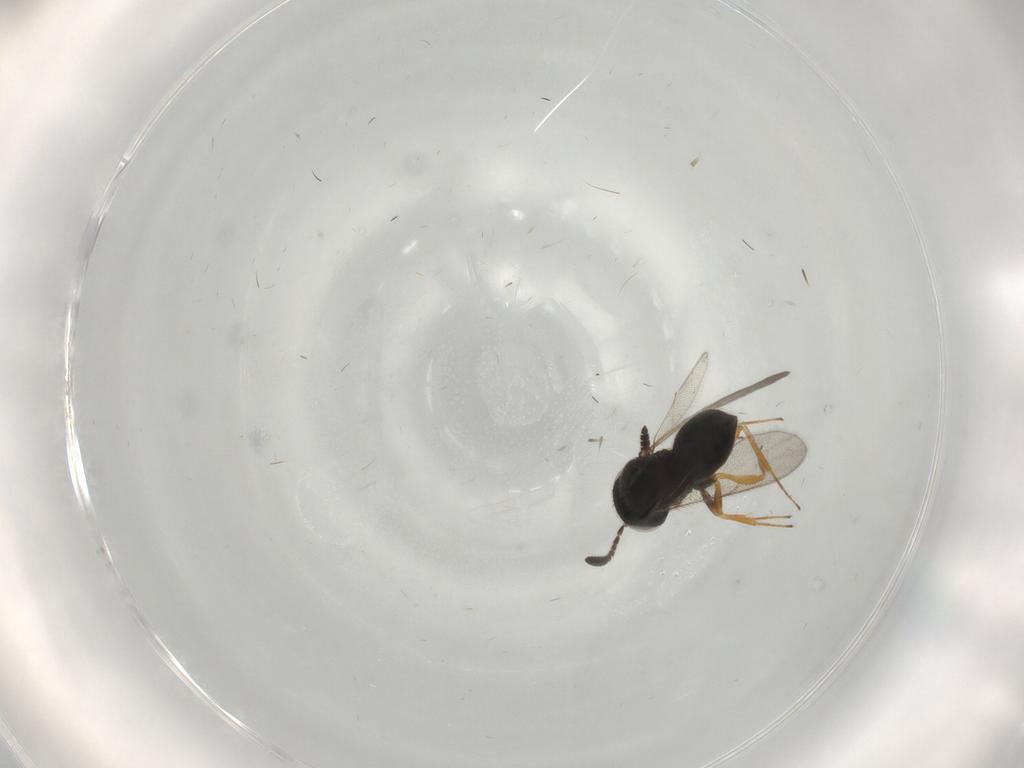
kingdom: Animalia
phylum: Arthropoda
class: Insecta
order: Hymenoptera
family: Scelionidae
